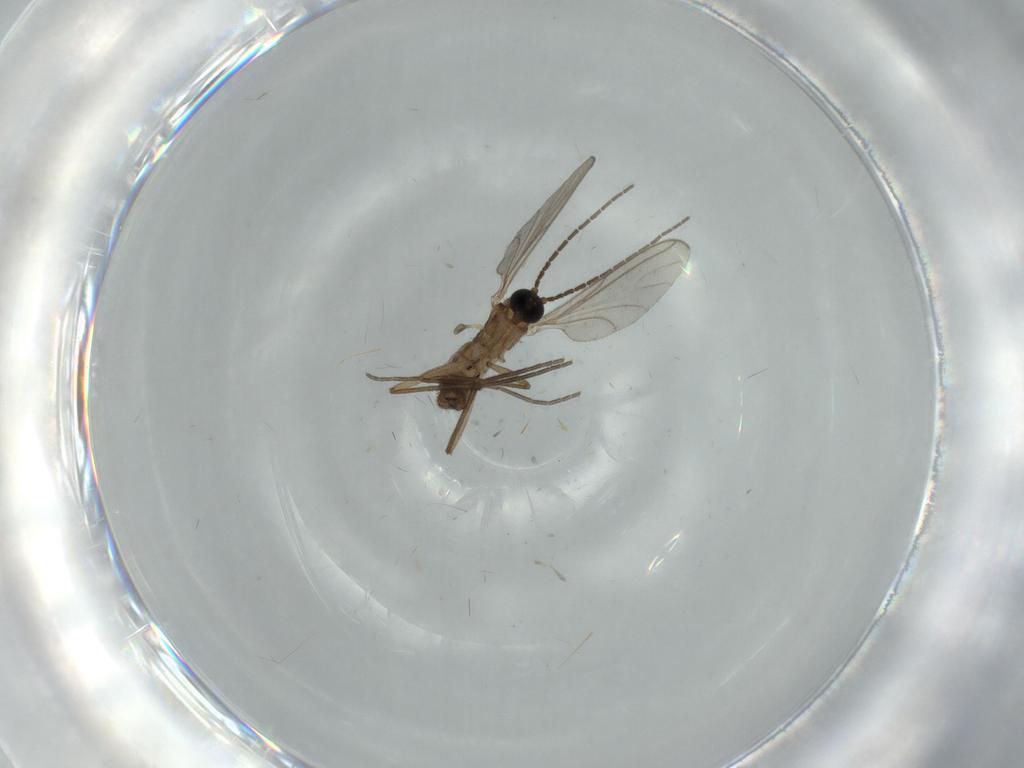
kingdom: Animalia
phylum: Arthropoda
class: Insecta
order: Diptera
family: Sciaridae
